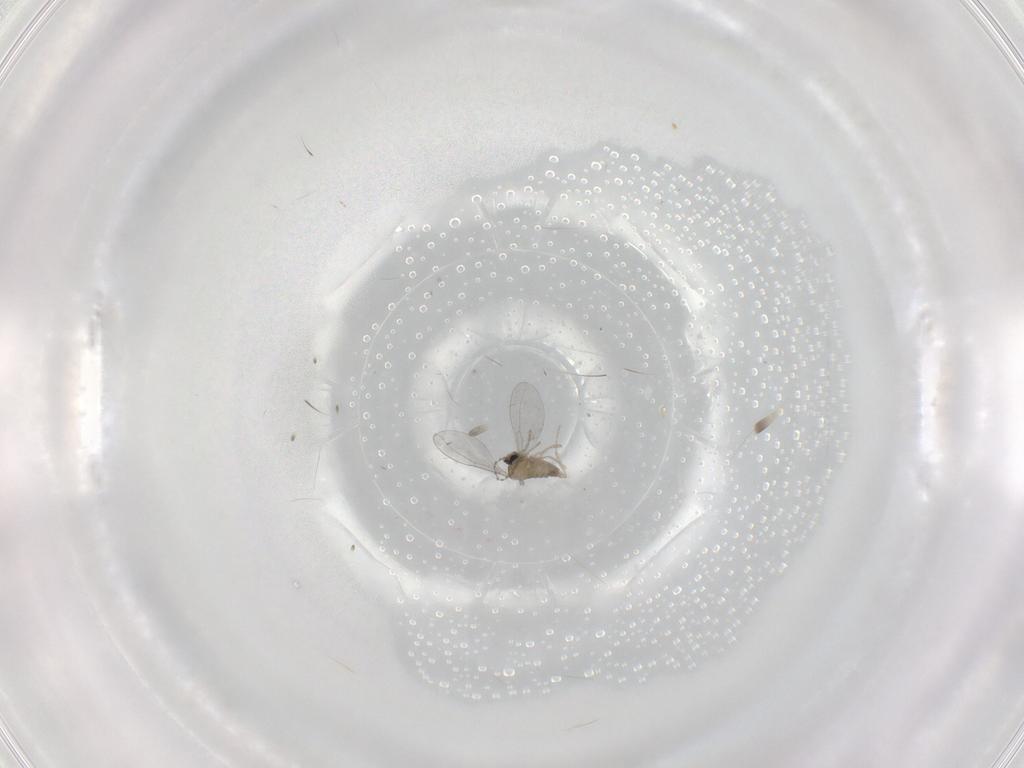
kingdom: Animalia
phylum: Arthropoda
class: Insecta
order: Diptera
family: Cecidomyiidae
